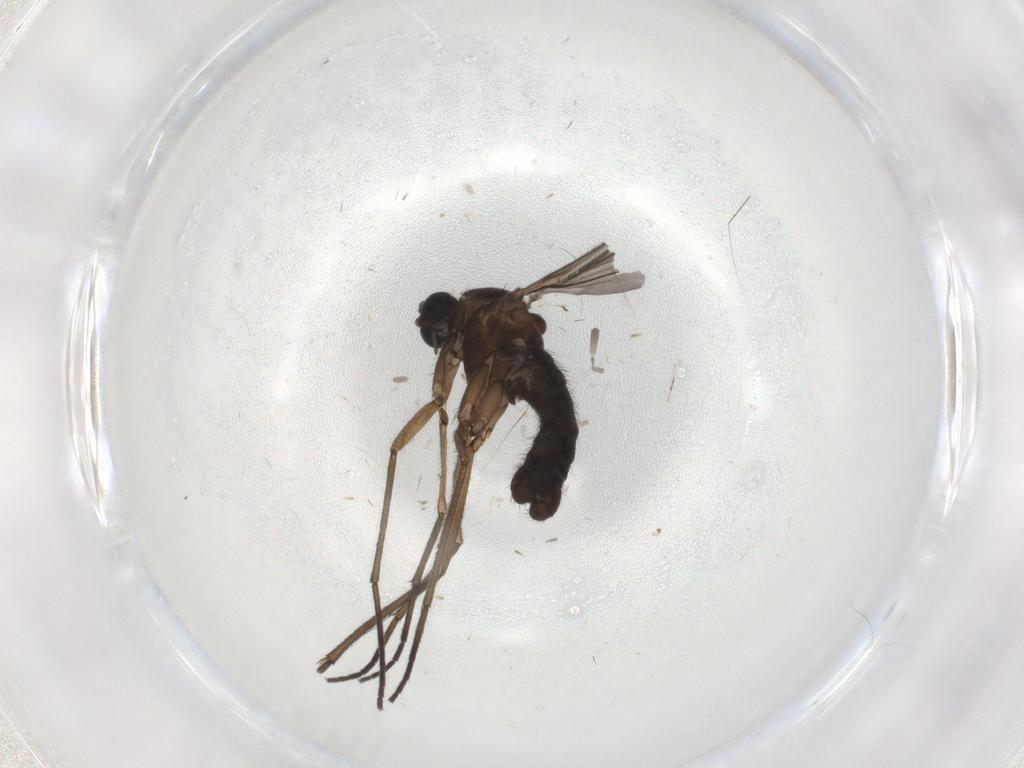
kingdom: Animalia
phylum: Arthropoda
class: Insecta
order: Diptera
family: Sciaridae
